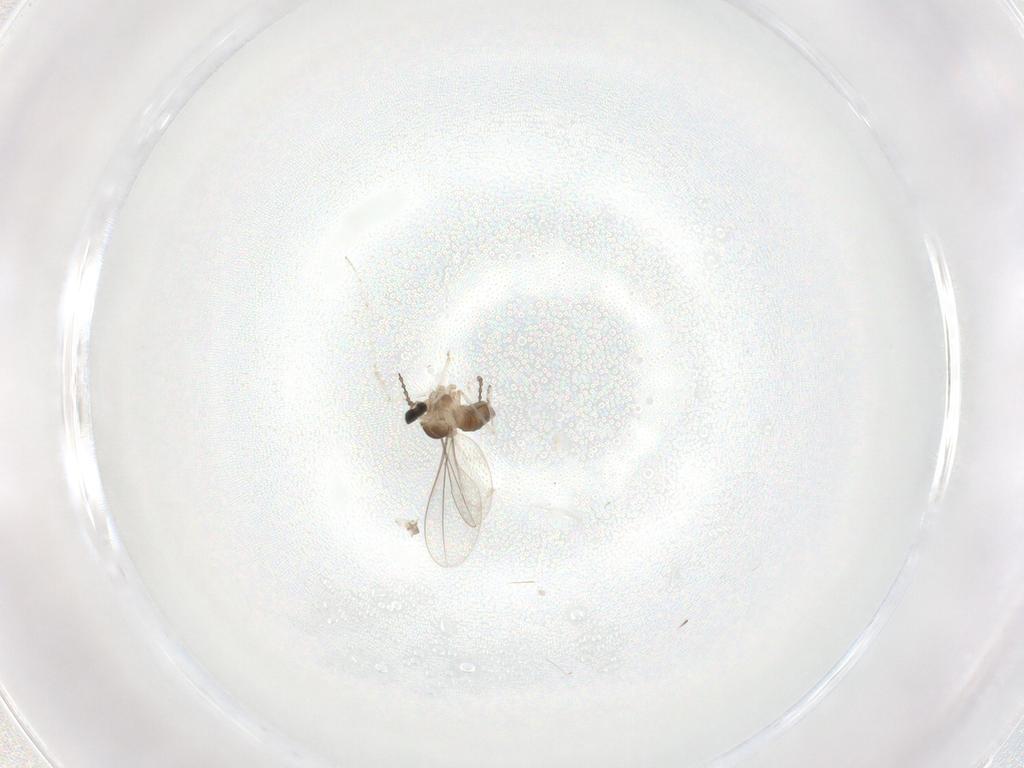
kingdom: Animalia
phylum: Arthropoda
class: Insecta
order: Diptera
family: Cecidomyiidae
